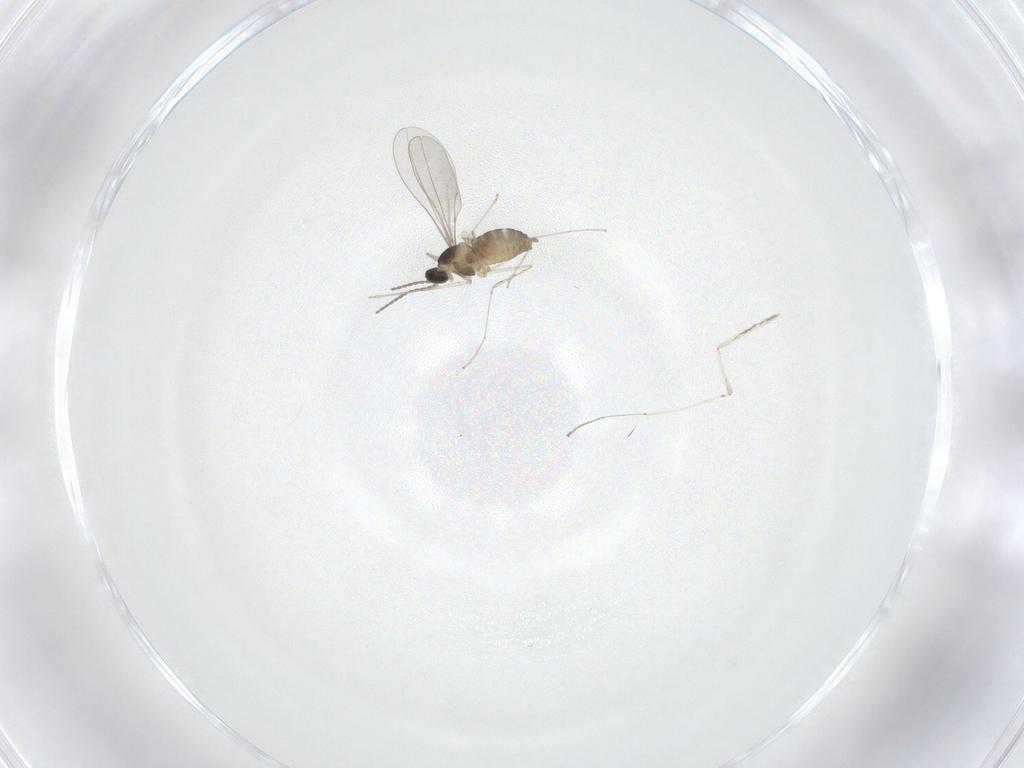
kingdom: Animalia
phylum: Arthropoda
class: Insecta
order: Diptera
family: Cecidomyiidae
